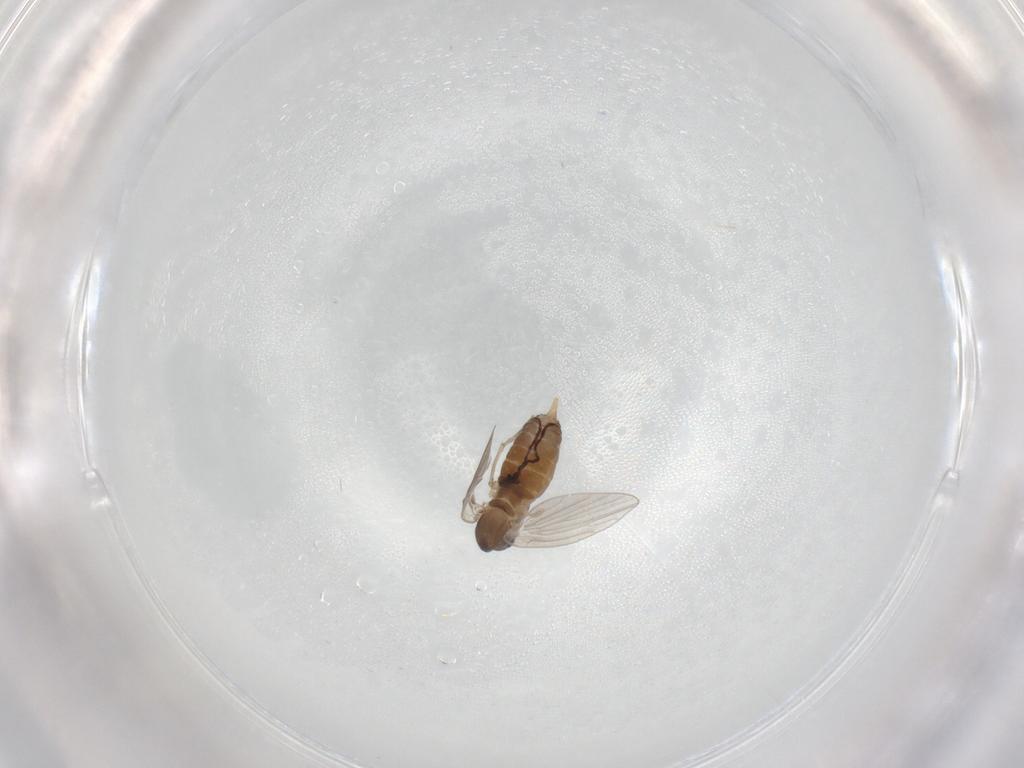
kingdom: Animalia
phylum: Arthropoda
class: Insecta
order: Diptera
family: Psychodidae
